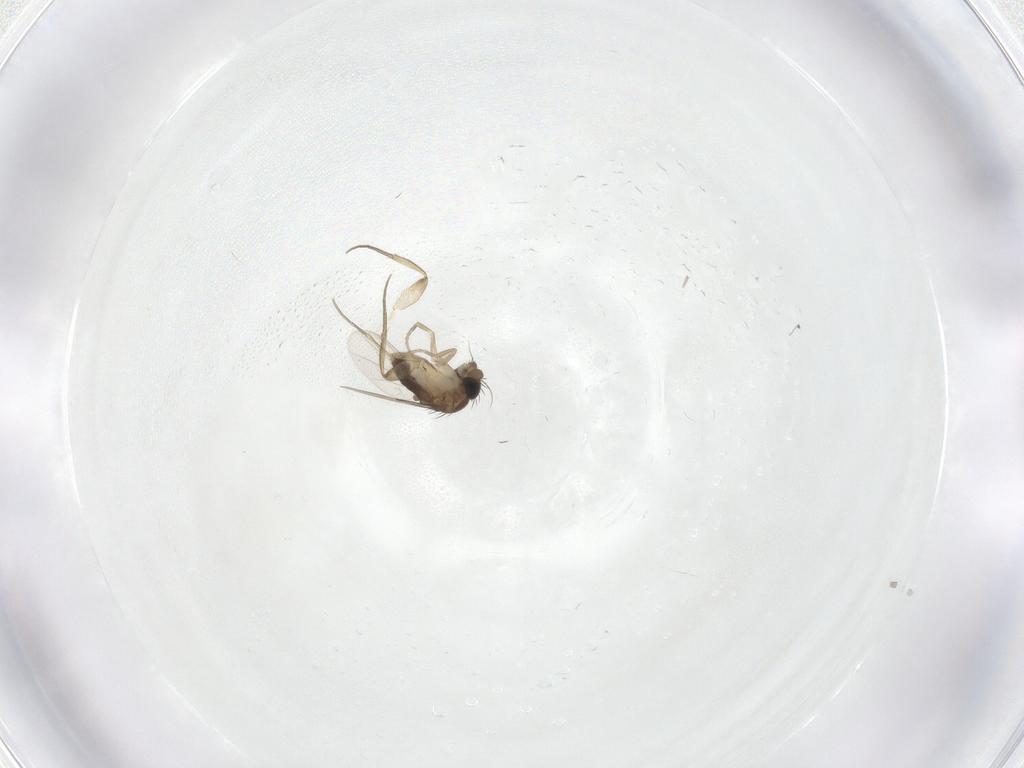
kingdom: Animalia
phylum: Arthropoda
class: Insecta
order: Diptera
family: Phoridae
